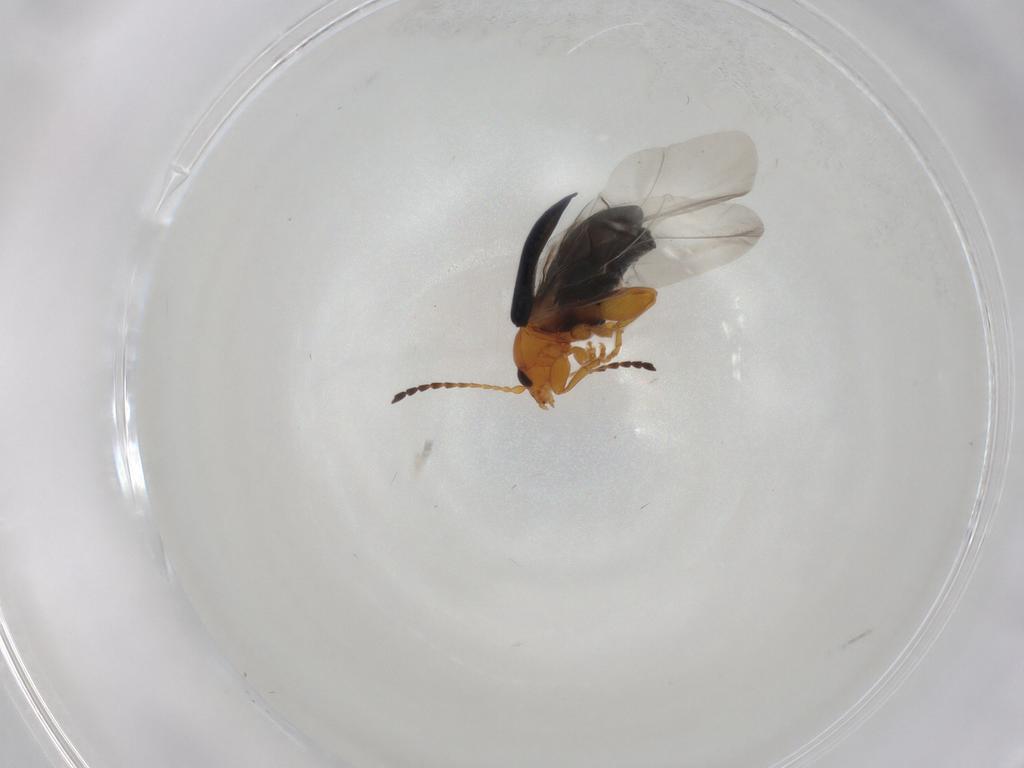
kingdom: Animalia
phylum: Arthropoda
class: Insecta
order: Coleoptera
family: Chrysomelidae
